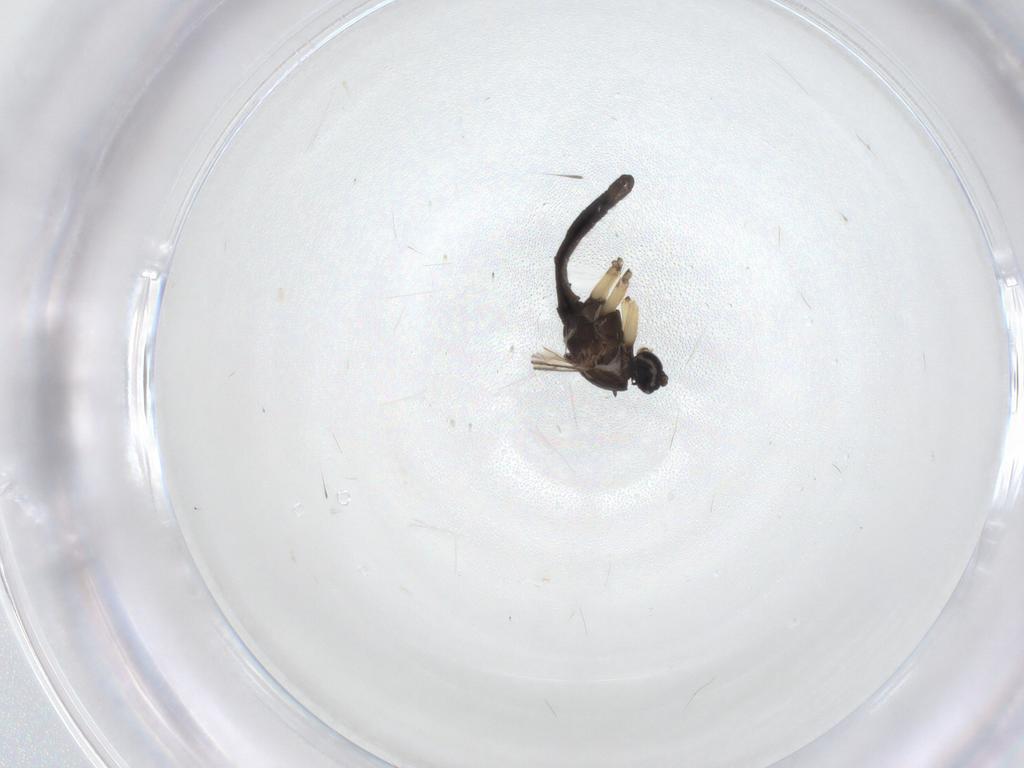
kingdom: Animalia
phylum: Arthropoda
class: Insecta
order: Diptera
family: Sciaridae
